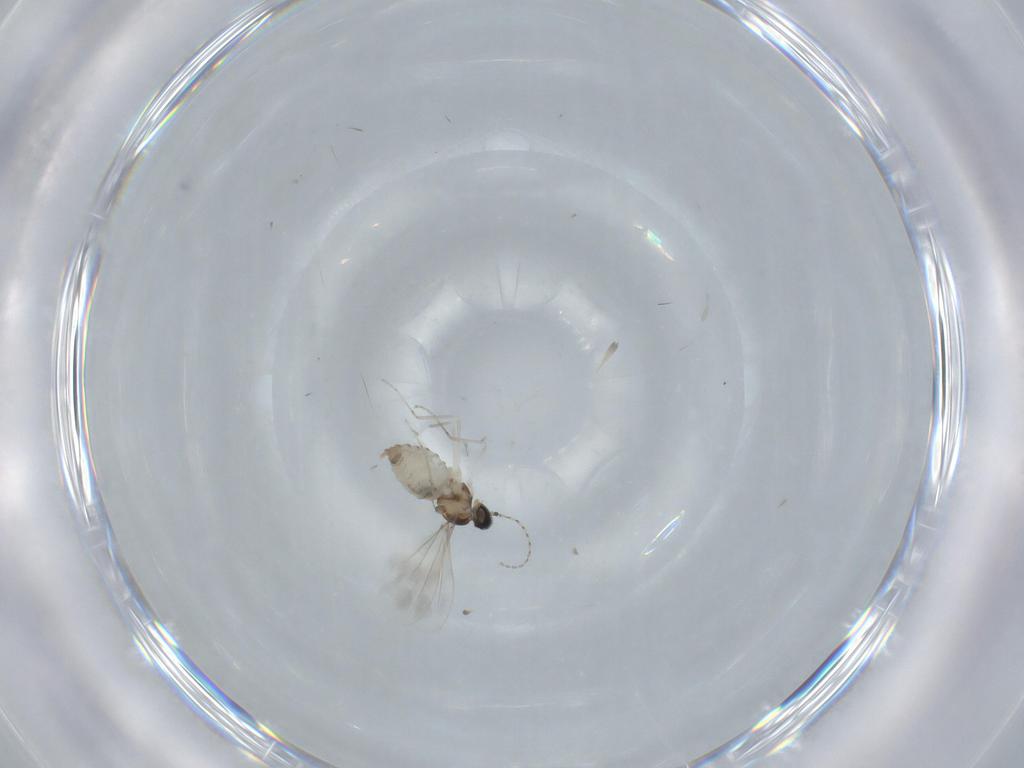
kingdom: Animalia
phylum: Arthropoda
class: Insecta
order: Diptera
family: Cecidomyiidae
